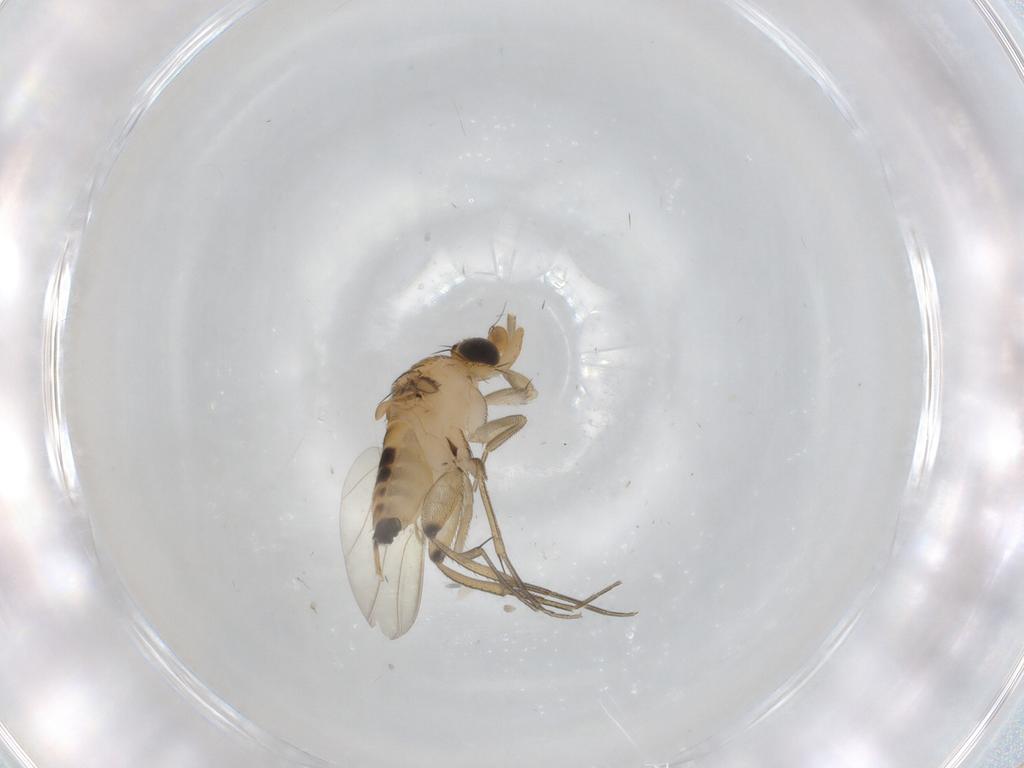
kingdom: Animalia
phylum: Arthropoda
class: Insecta
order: Diptera
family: Phoridae
